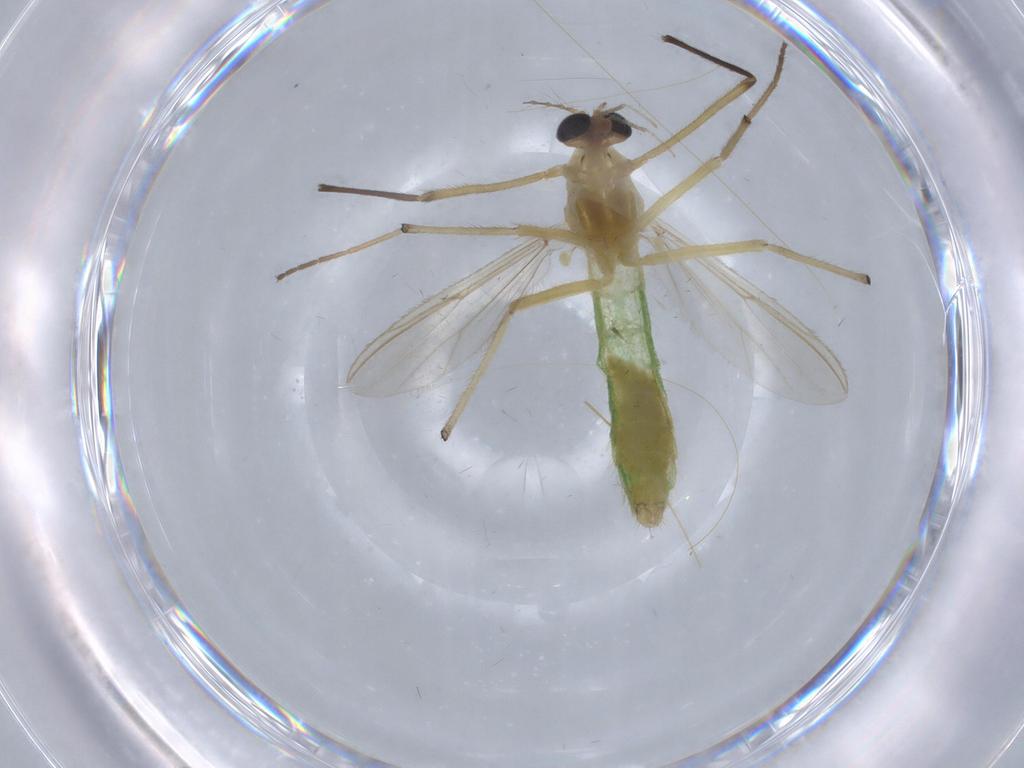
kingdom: Animalia
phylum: Arthropoda
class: Insecta
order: Diptera
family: Chironomidae
